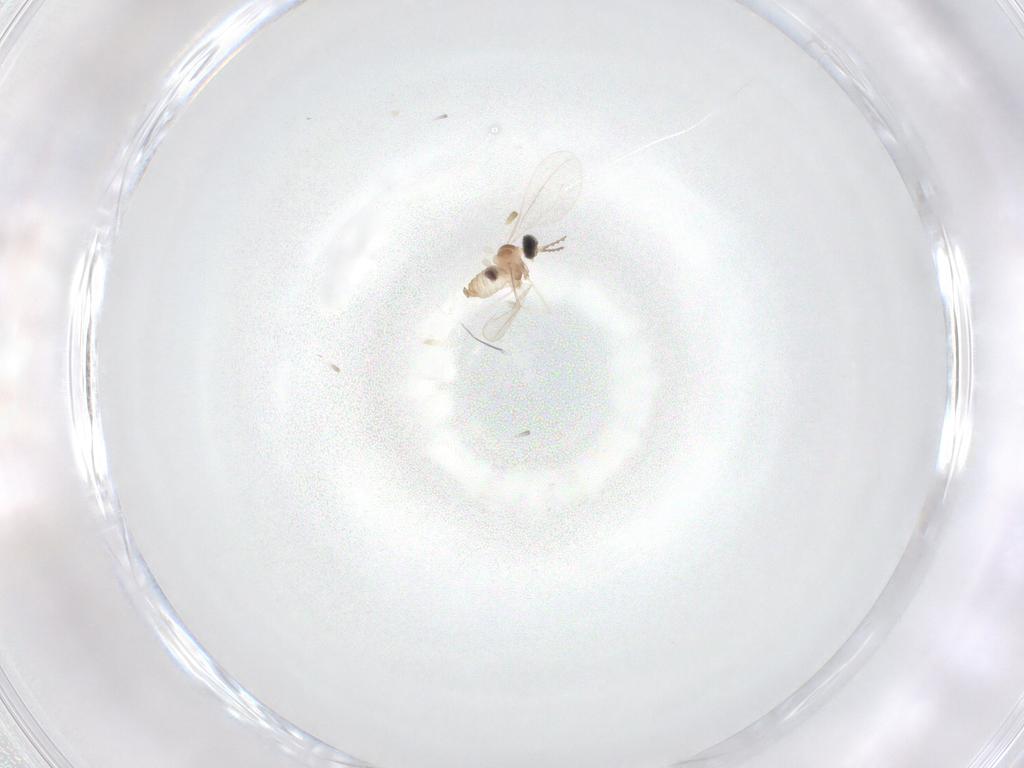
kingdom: Animalia
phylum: Arthropoda
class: Insecta
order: Diptera
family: Cecidomyiidae
